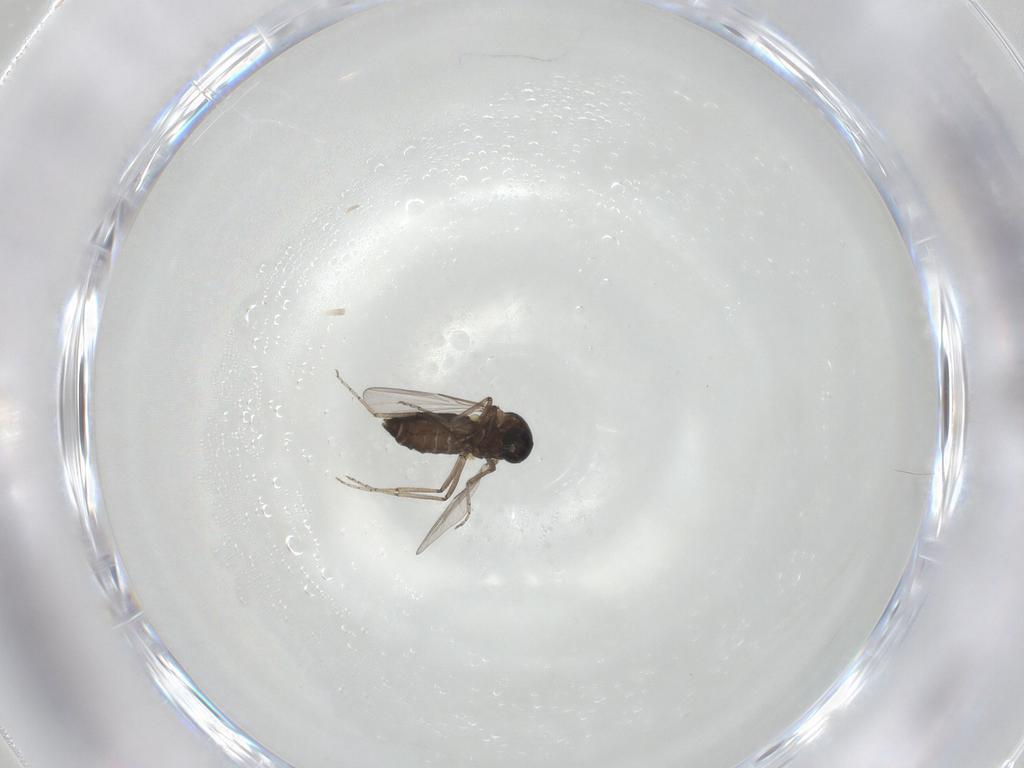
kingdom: Animalia
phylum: Arthropoda
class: Insecta
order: Diptera
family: Ceratopogonidae
